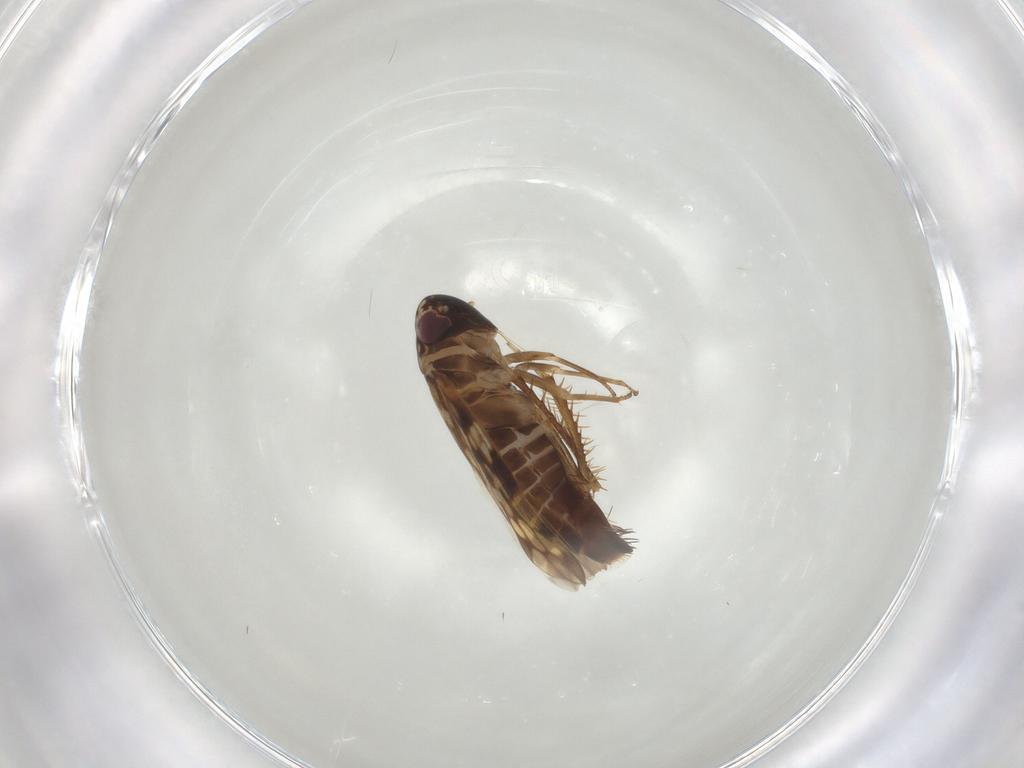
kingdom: Animalia
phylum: Arthropoda
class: Insecta
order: Hemiptera
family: Cicadellidae
